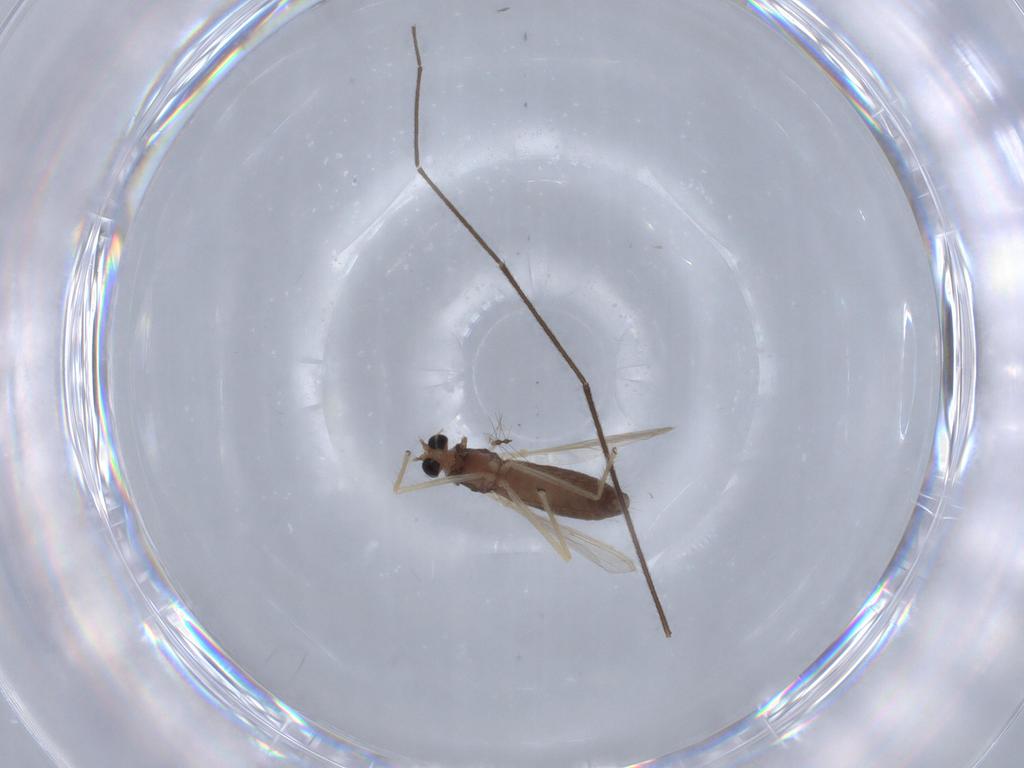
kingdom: Animalia
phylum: Arthropoda
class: Insecta
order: Diptera
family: Chironomidae
